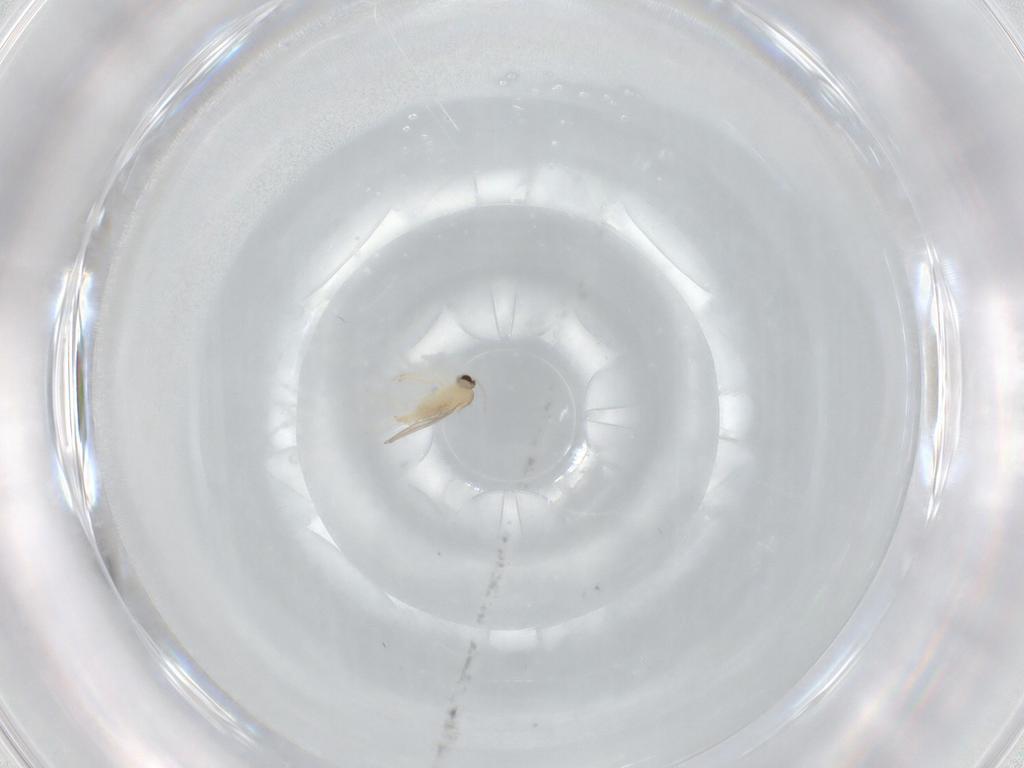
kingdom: Animalia
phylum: Arthropoda
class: Insecta
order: Diptera
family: Cecidomyiidae
